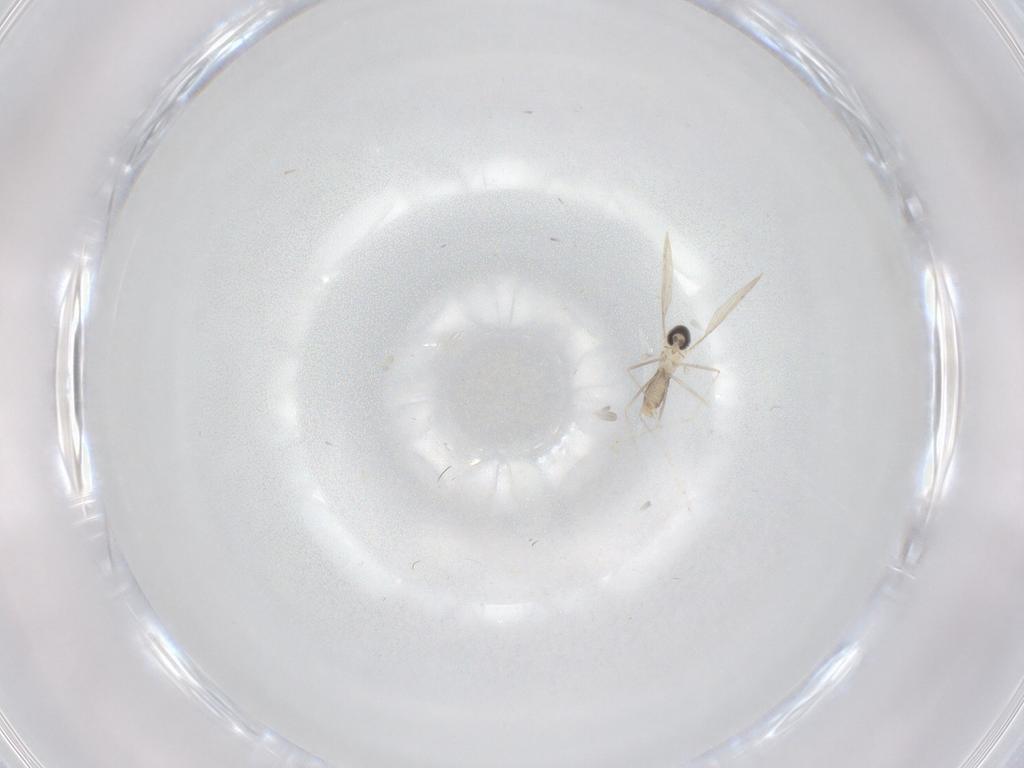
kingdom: Animalia
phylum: Arthropoda
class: Insecta
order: Diptera
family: Cecidomyiidae
